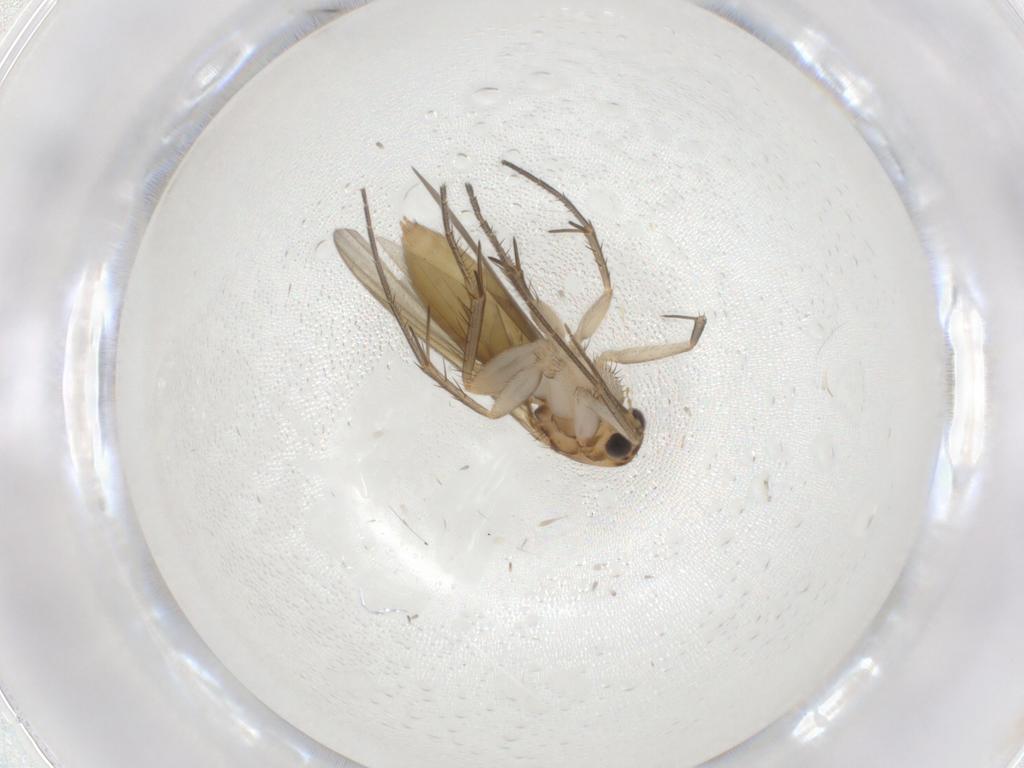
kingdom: Animalia
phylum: Arthropoda
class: Insecta
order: Diptera
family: Mycetophilidae
